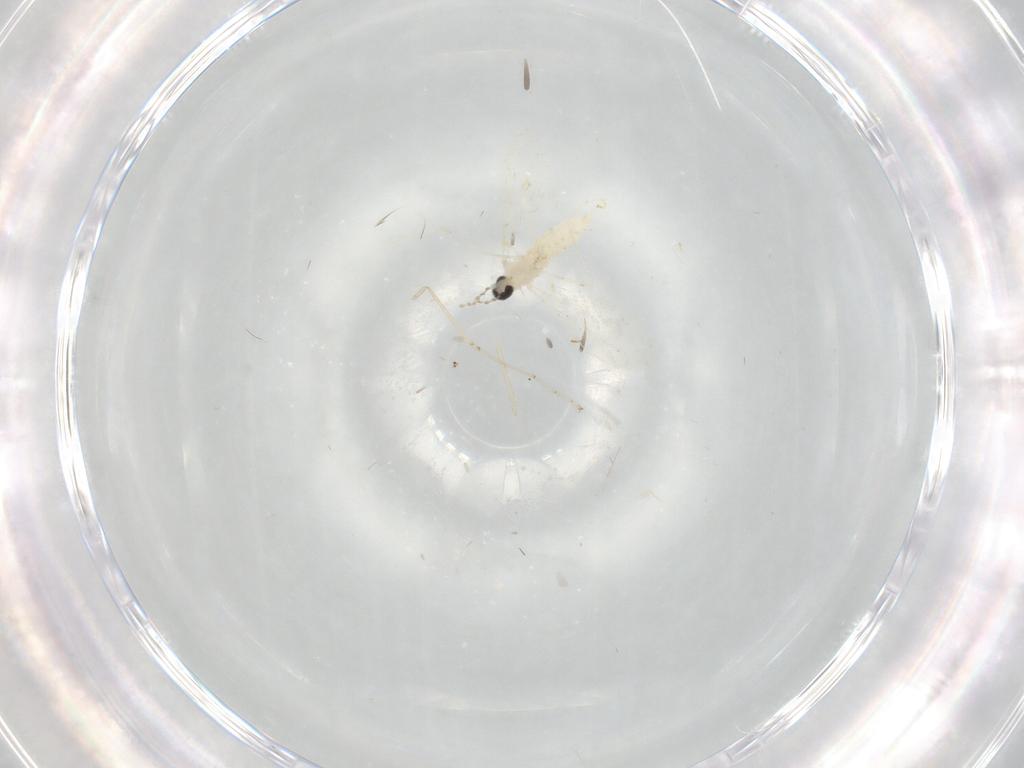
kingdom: Animalia
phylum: Arthropoda
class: Insecta
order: Diptera
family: Cecidomyiidae
